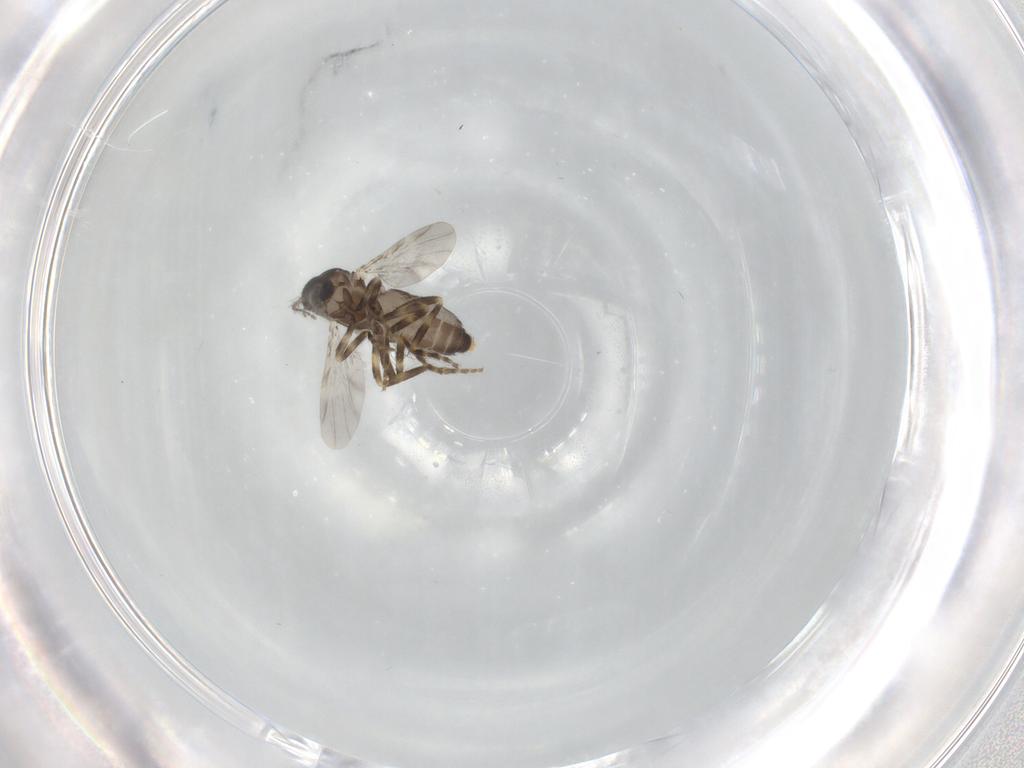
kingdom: Animalia
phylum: Arthropoda
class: Insecta
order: Diptera
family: Ceratopogonidae
